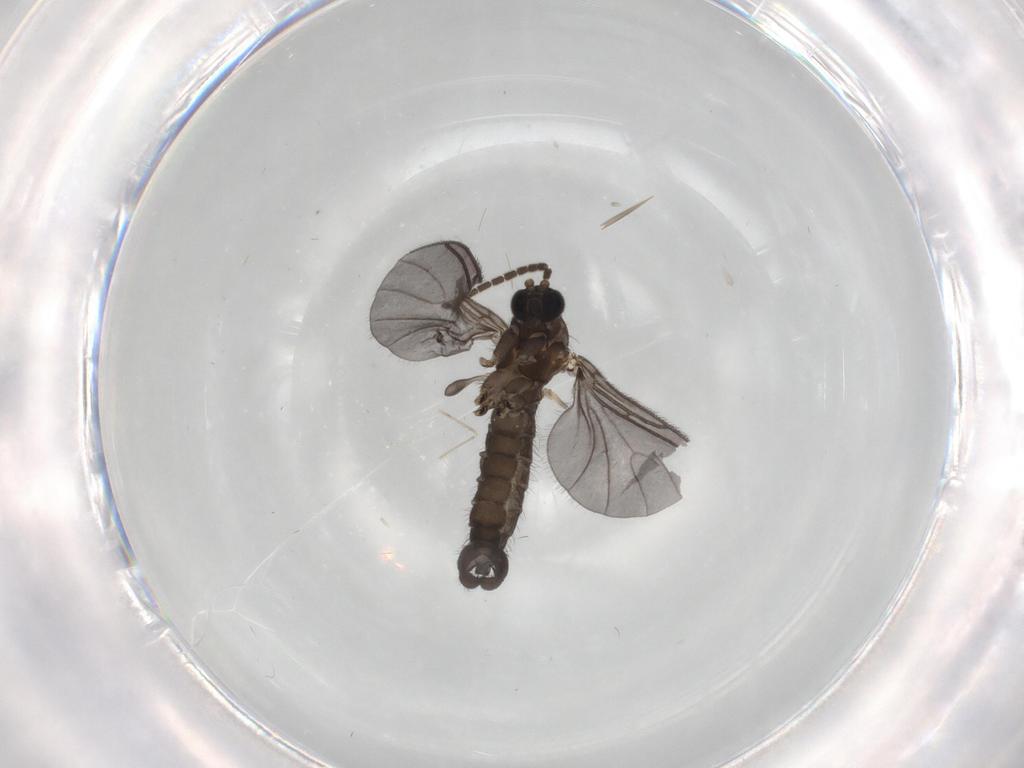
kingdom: Animalia
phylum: Arthropoda
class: Insecta
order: Diptera
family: Sciaridae
